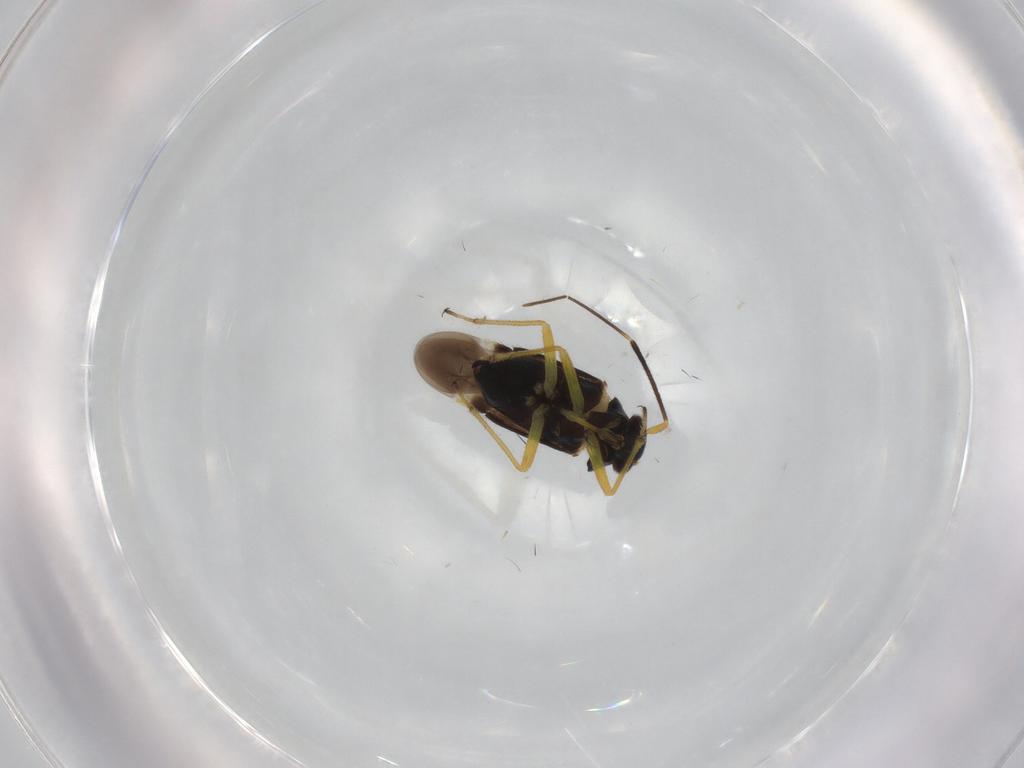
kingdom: Animalia
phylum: Arthropoda
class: Insecta
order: Hemiptera
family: Miridae
